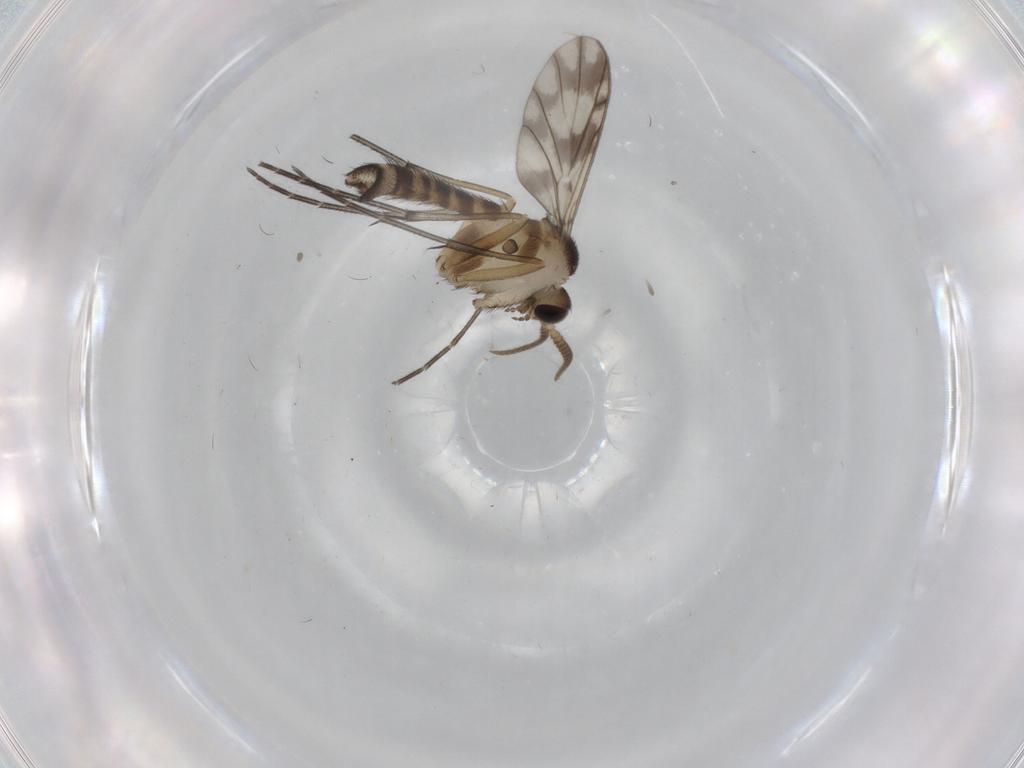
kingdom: Animalia
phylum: Arthropoda
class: Insecta
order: Diptera
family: Keroplatidae
